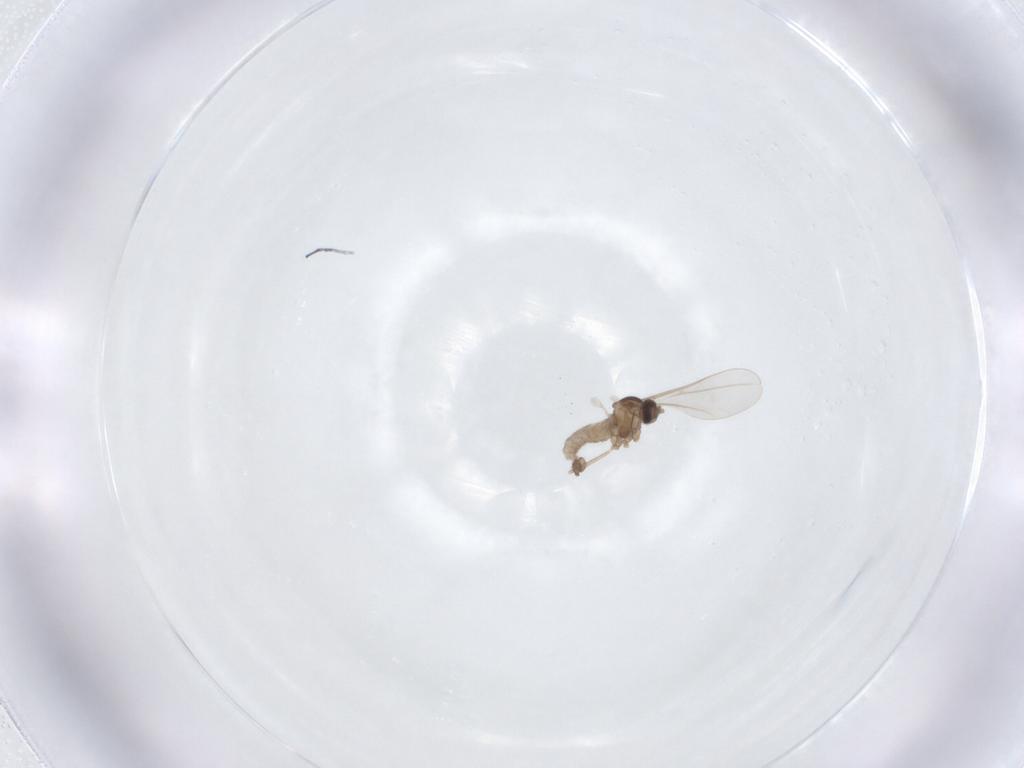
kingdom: Animalia
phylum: Arthropoda
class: Insecta
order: Diptera
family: Cecidomyiidae
